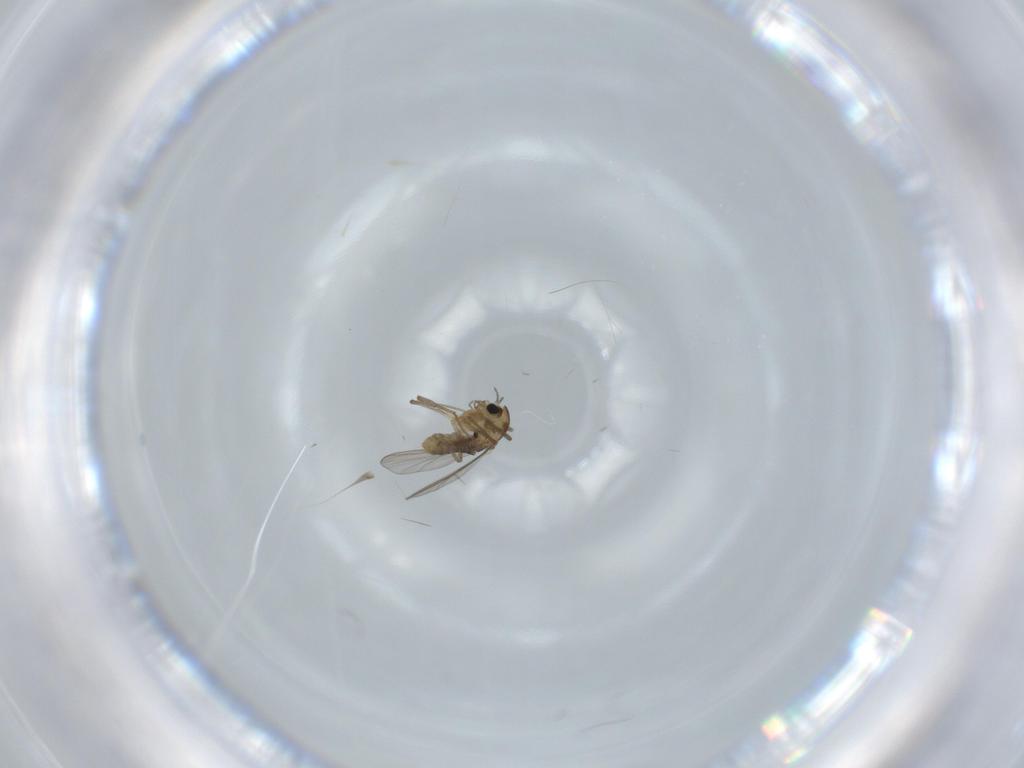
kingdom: Animalia
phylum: Arthropoda
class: Insecta
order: Diptera
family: Chironomidae
